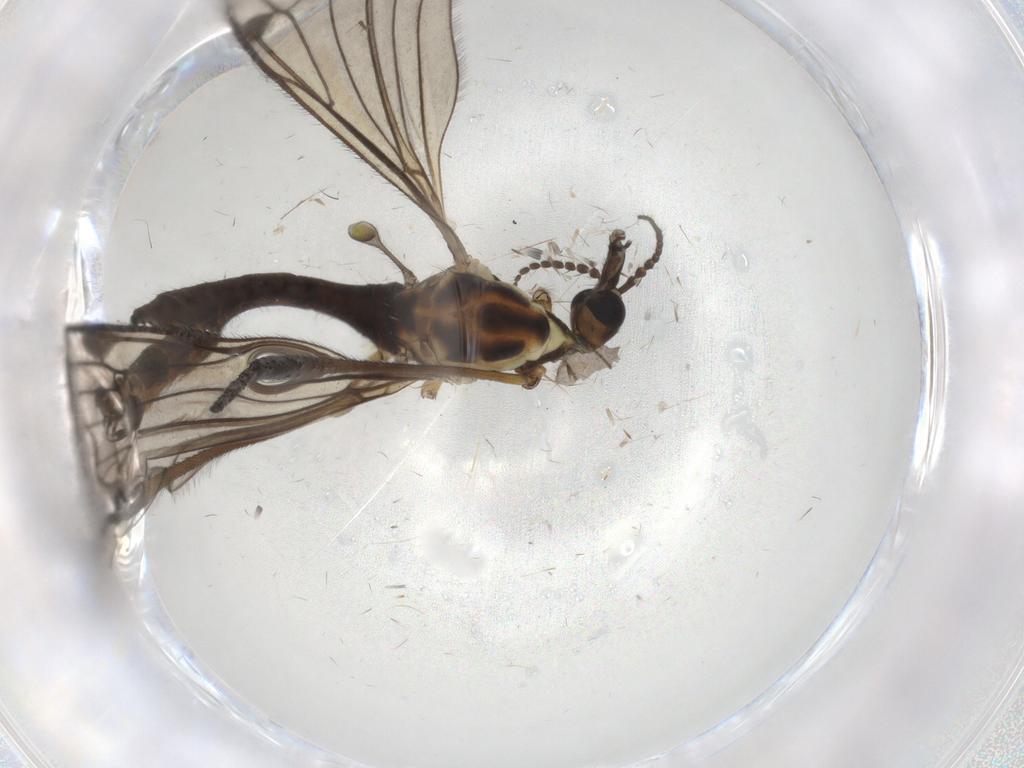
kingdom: Animalia
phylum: Arthropoda
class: Insecta
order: Diptera
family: Limoniidae
